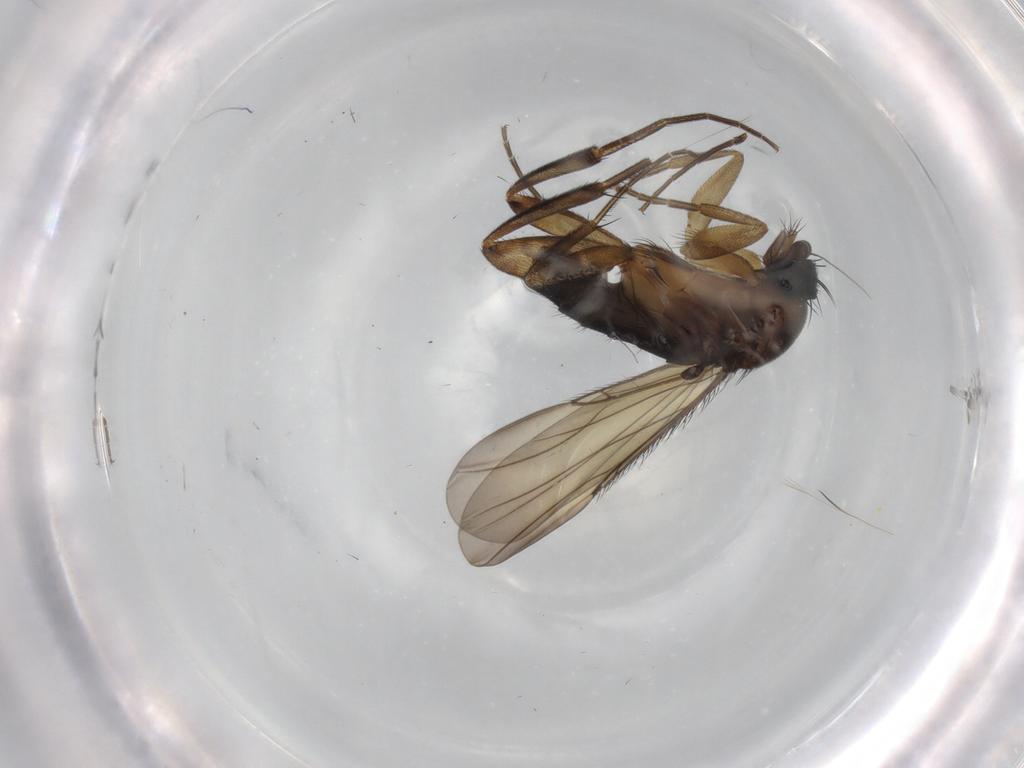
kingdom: Animalia
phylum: Arthropoda
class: Insecta
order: Diptera
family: Phoridae
